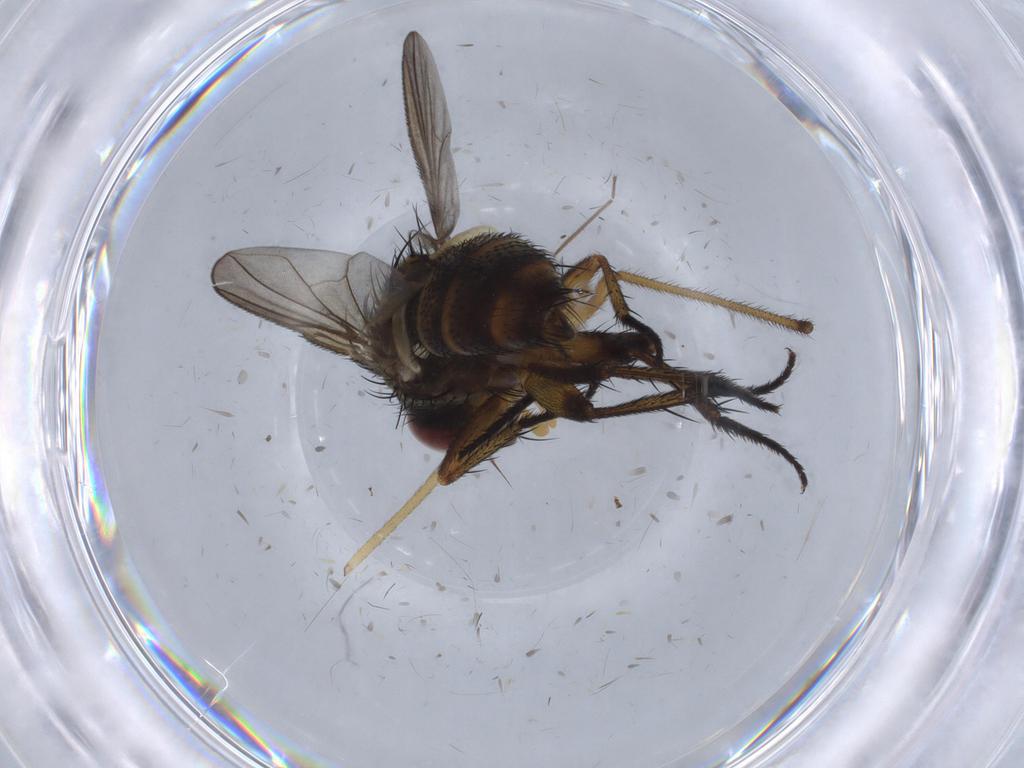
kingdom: Animalia
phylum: Arthropoda
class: Insecta
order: Diptera
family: Tachinidae
